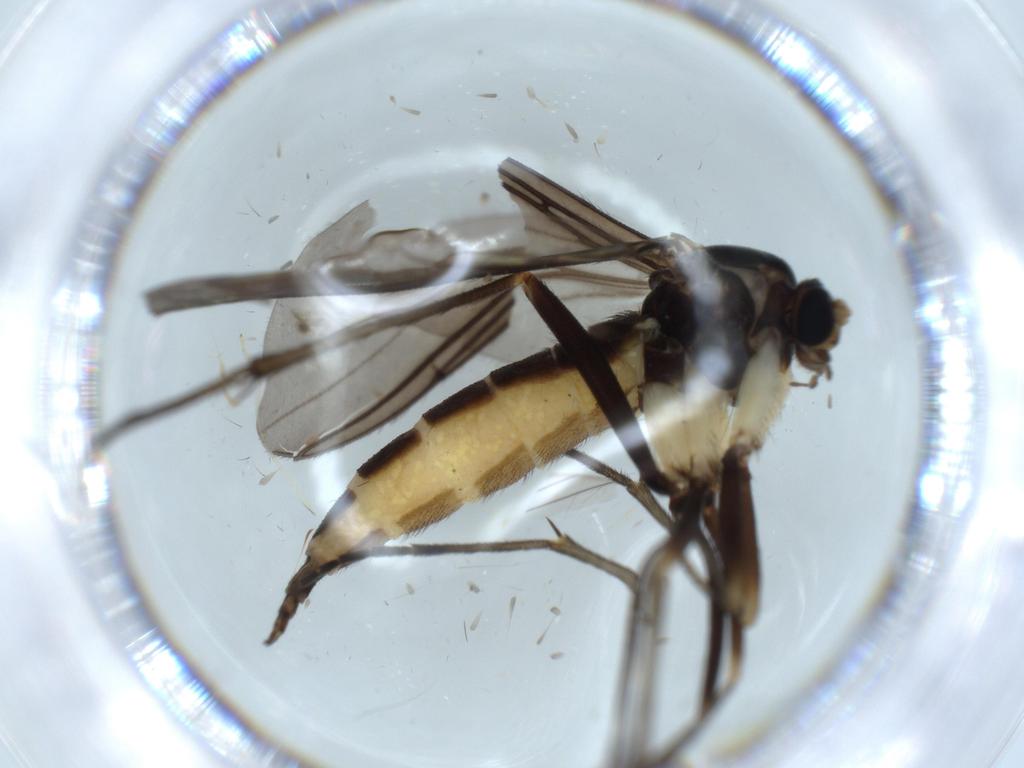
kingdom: Animalia
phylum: Arthropoda
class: Insecta
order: Diptera
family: Sciaridae
